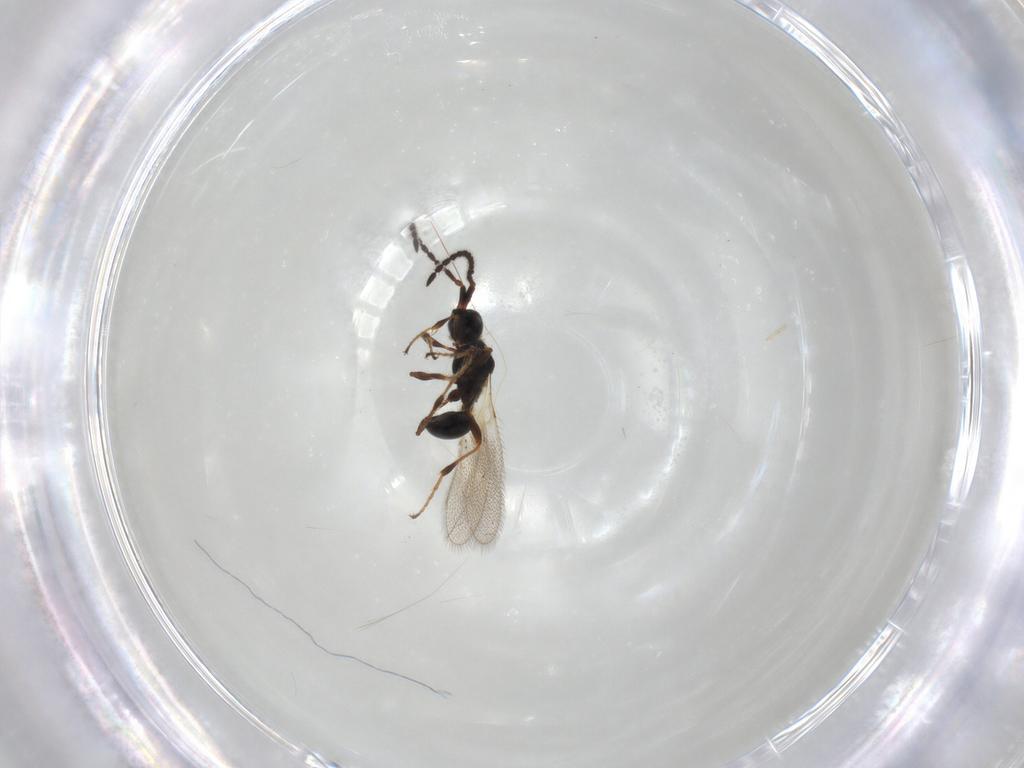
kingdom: Animalia
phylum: Arthropoda
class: Insecta
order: Hymenoptera
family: Diapriidae
